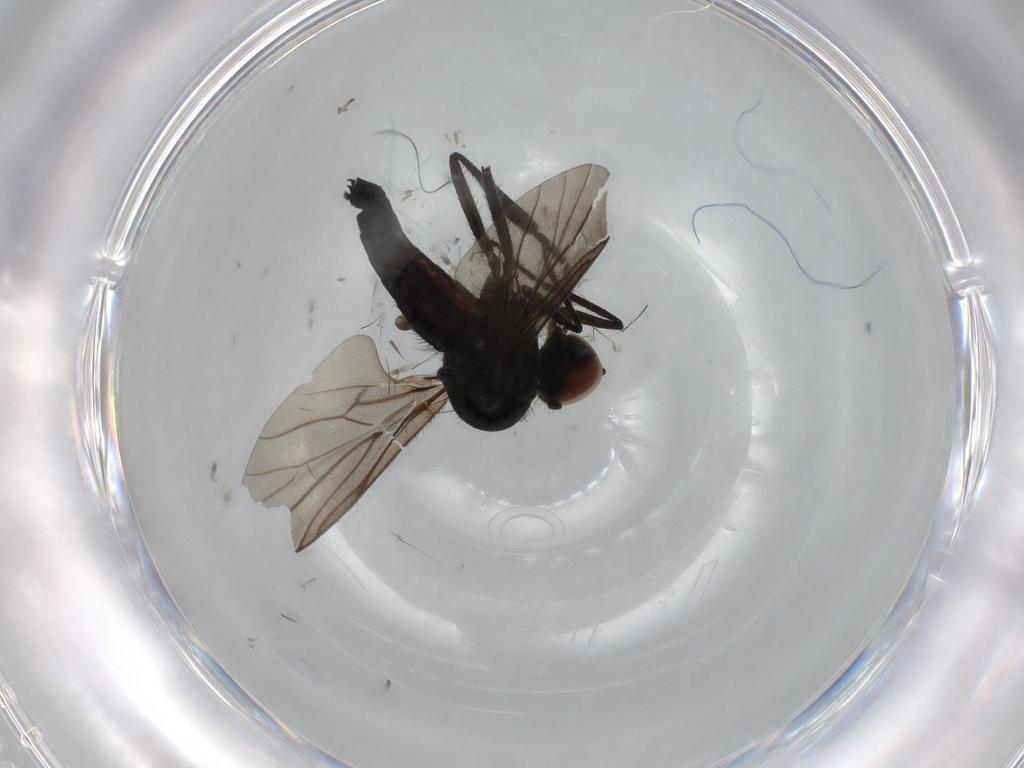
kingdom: Animalia
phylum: Arthropoda
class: Insecta
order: Diptera
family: Hybotidae
